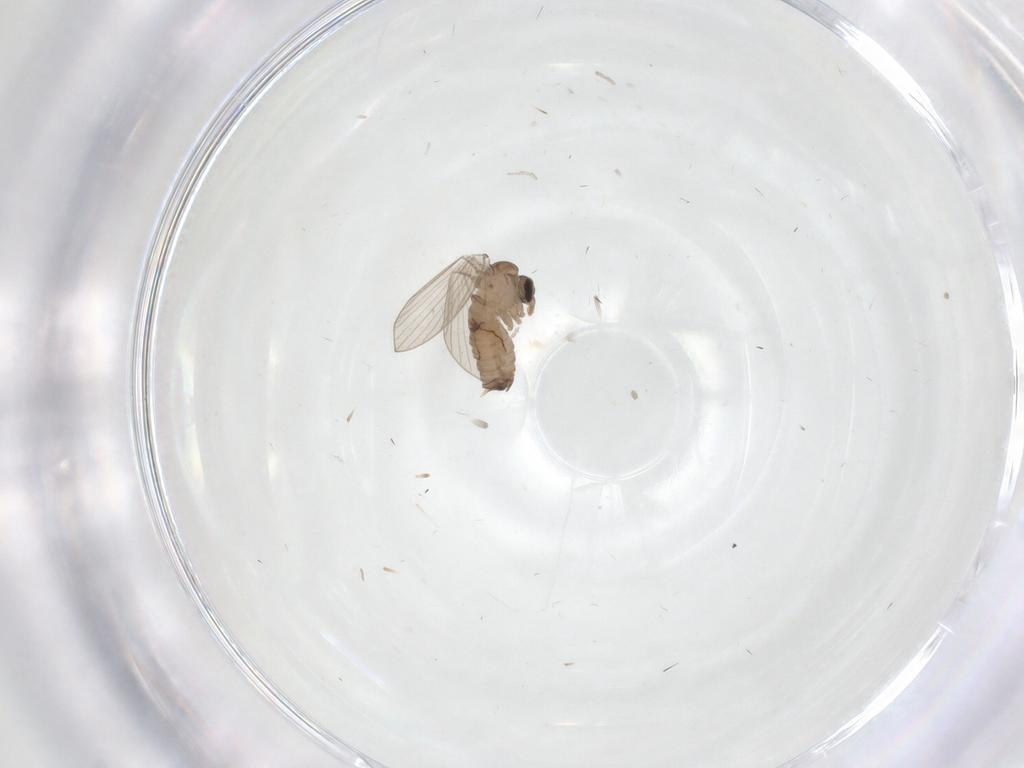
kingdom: Animalia
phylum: Arthropoda
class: Insecta
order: Diptera
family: Psychodidae
